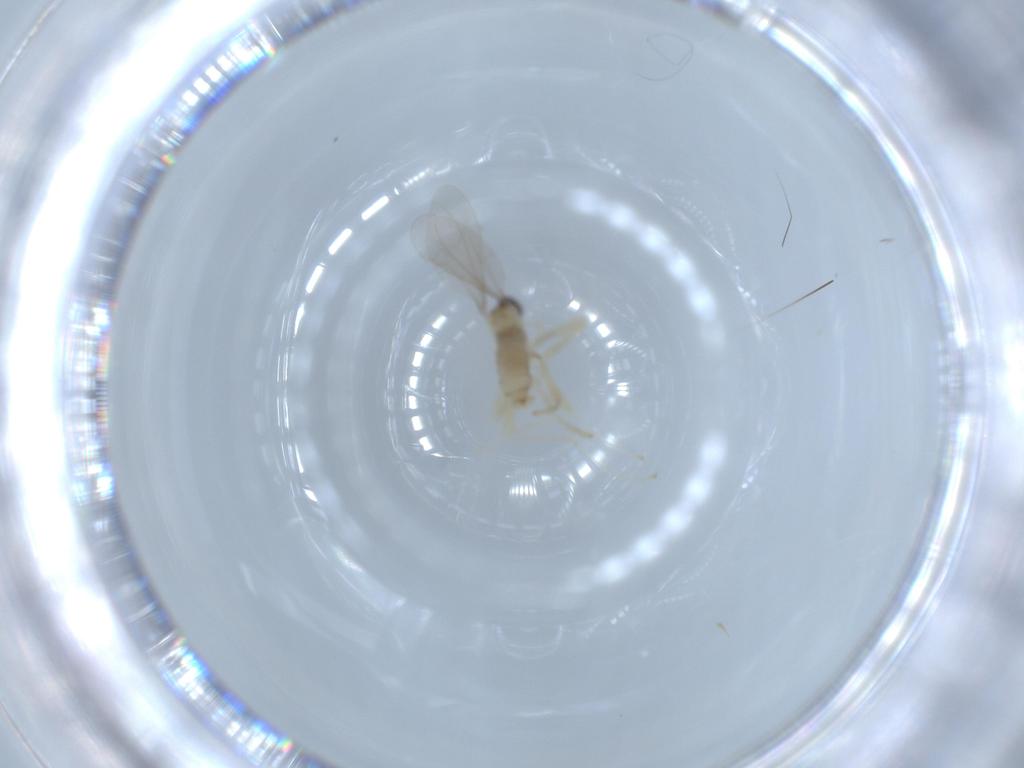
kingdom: Animalia
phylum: Arthropoda
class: Insecta
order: Diptera
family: Cecidomyiidae
